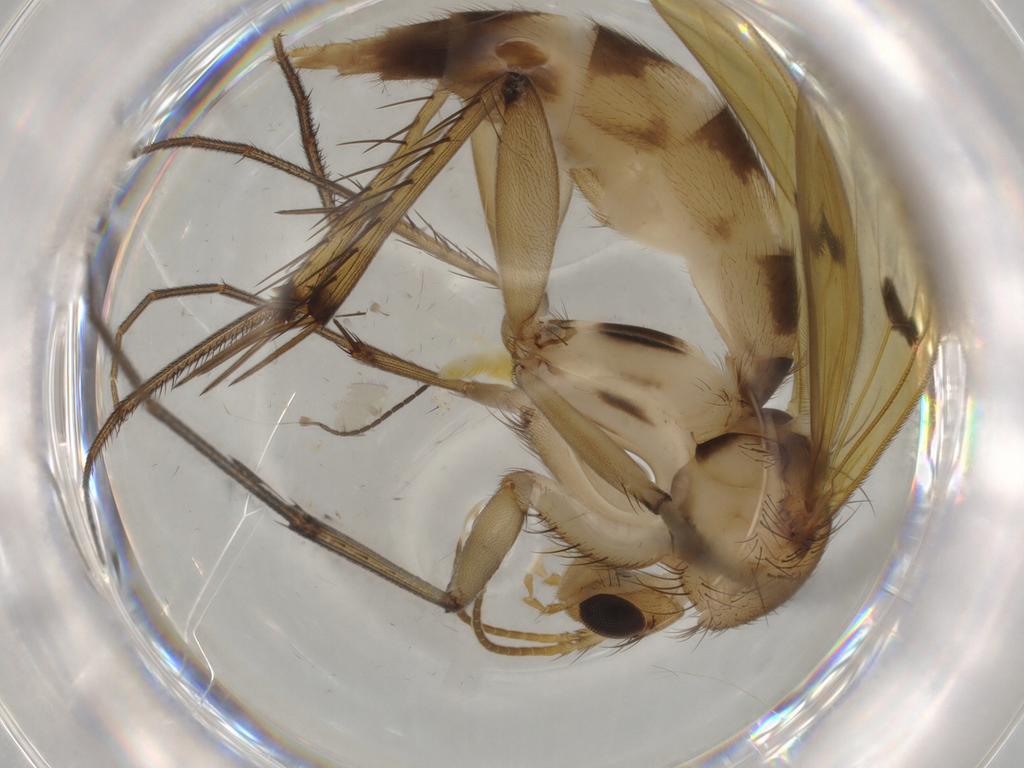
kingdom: Animalia
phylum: Arthropoda
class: Insecta
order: Diptera
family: Mycetophilidae
